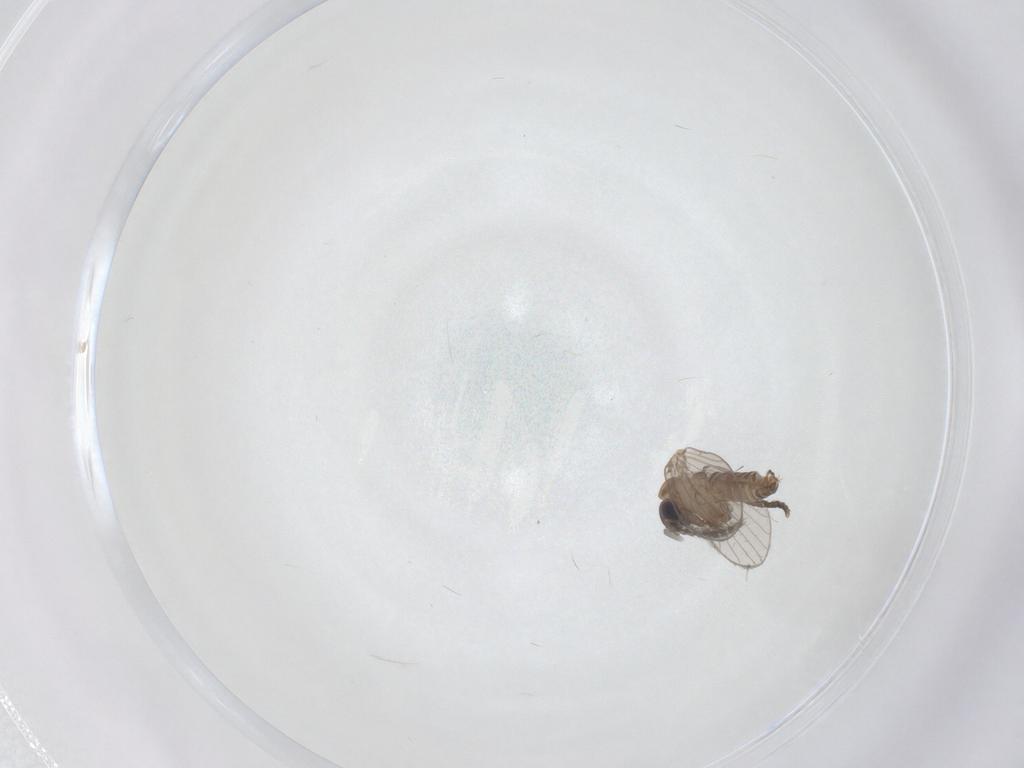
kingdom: Animalia
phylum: Arthropoda
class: Insecta
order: Diptera
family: Psychodidae
